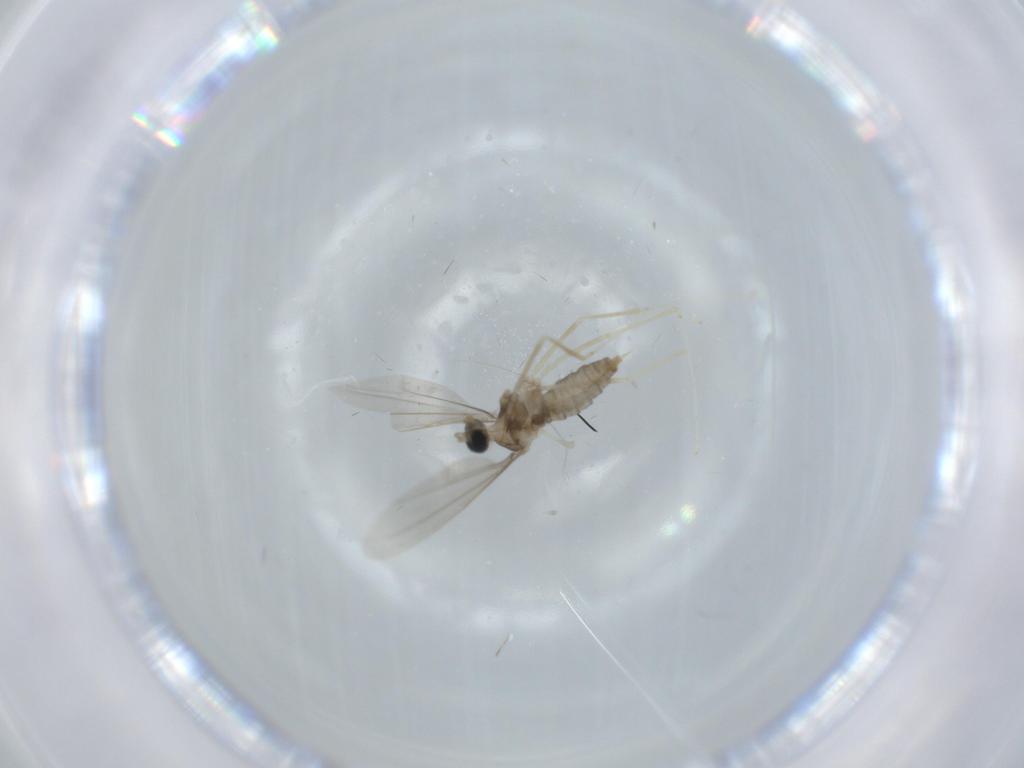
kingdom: Animalia
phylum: Arthropoda
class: Insecta
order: Diptera
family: Cecidomyiidae
